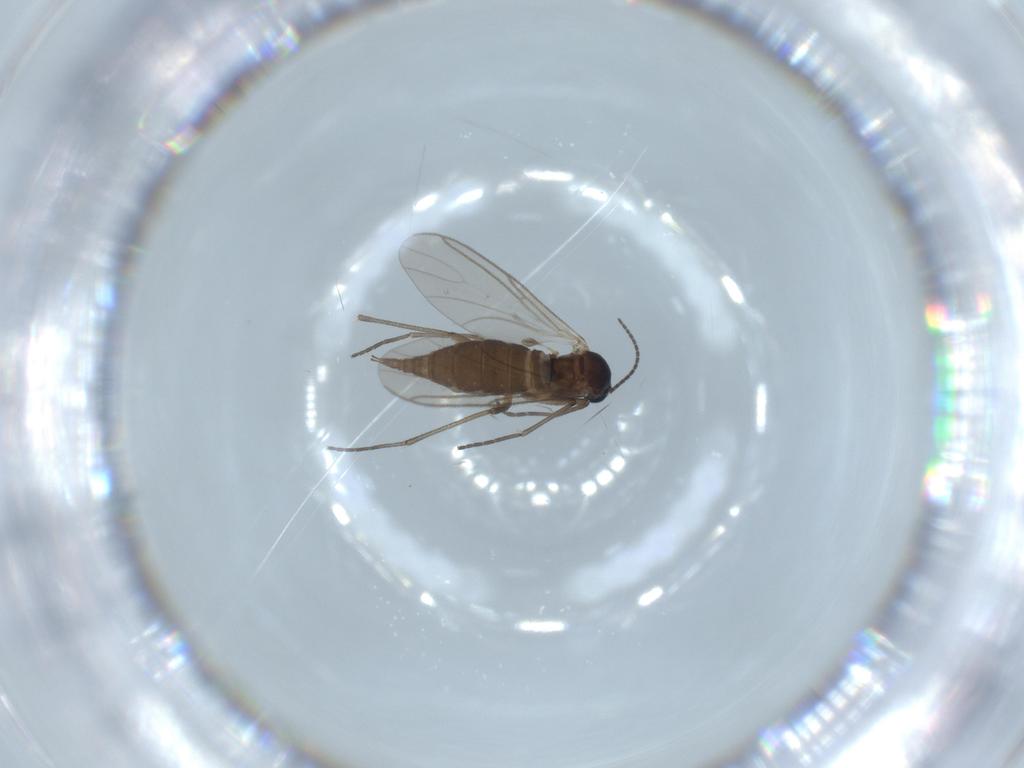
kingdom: Animalia
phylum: Arthropoda
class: Insecta
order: Diptera
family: Sciaridae
